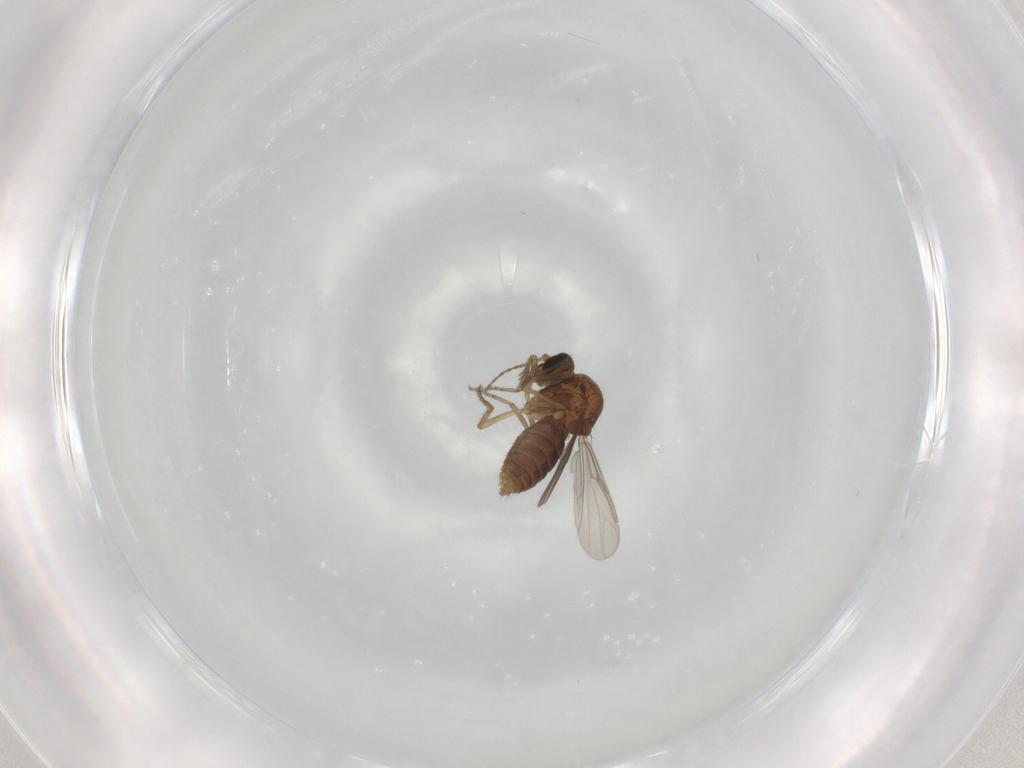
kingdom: Animalia
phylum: Arthropoda
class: Insecta
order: Diptera
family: Ceratopogonidae
